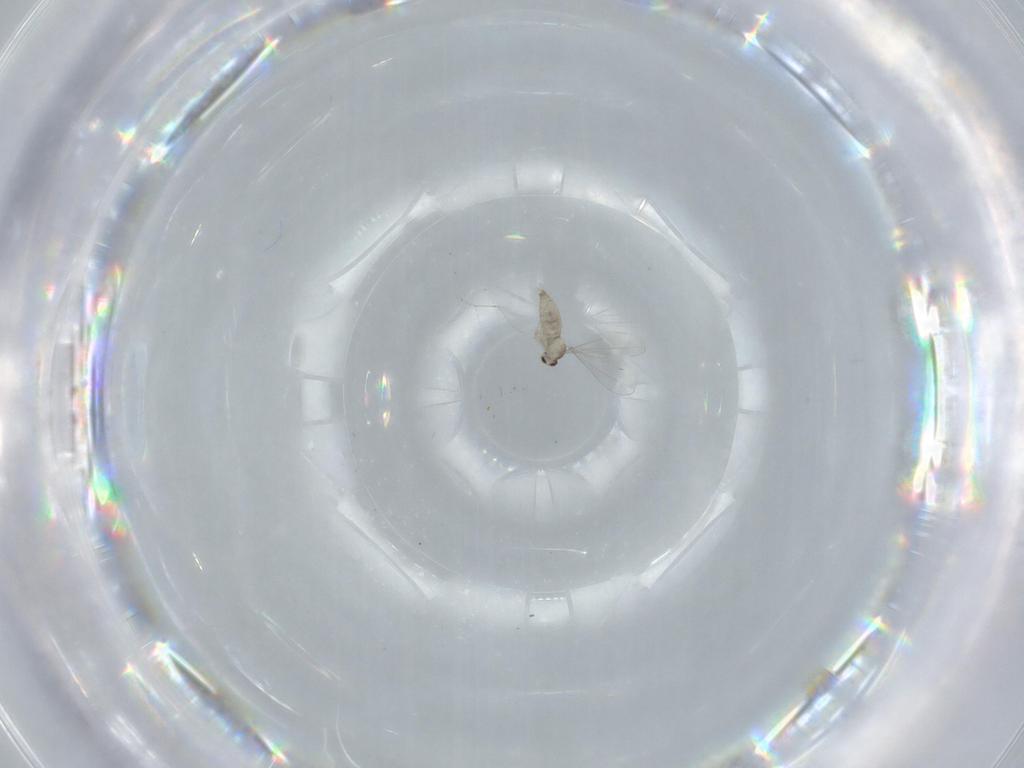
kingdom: Animalia
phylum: Arthropoda
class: Insecta
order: Diptera
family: Cecidomyiidae
